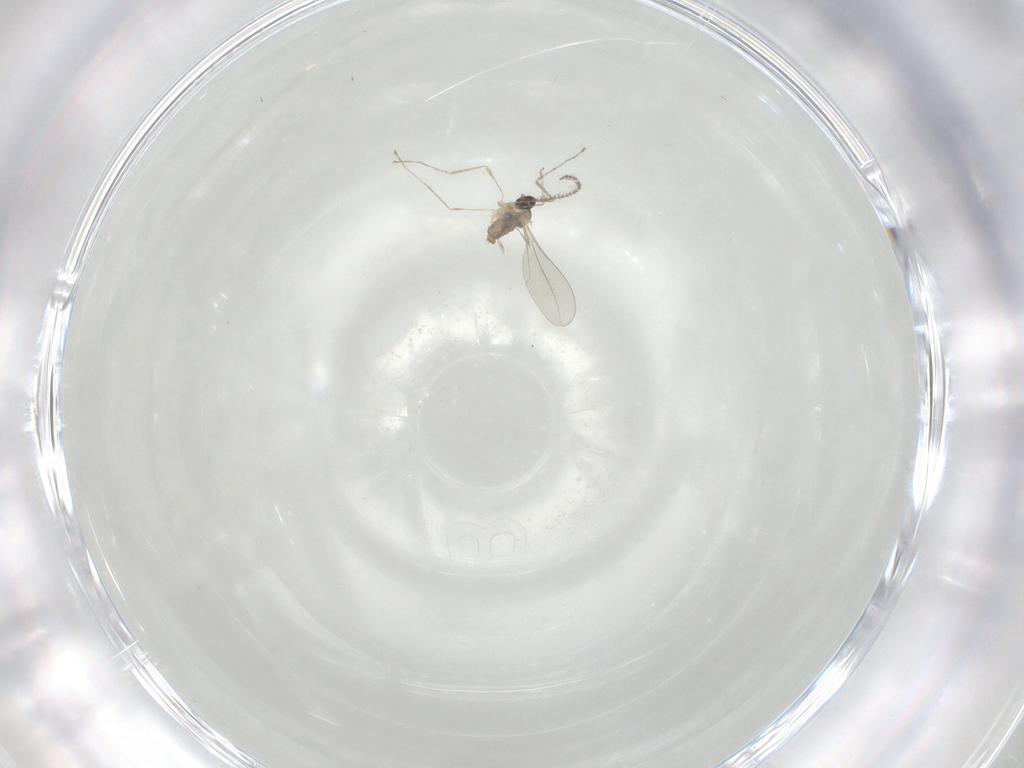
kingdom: Animalia
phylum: Arthropoda
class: Insecta
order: Diptera
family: Cecidomyiidae
